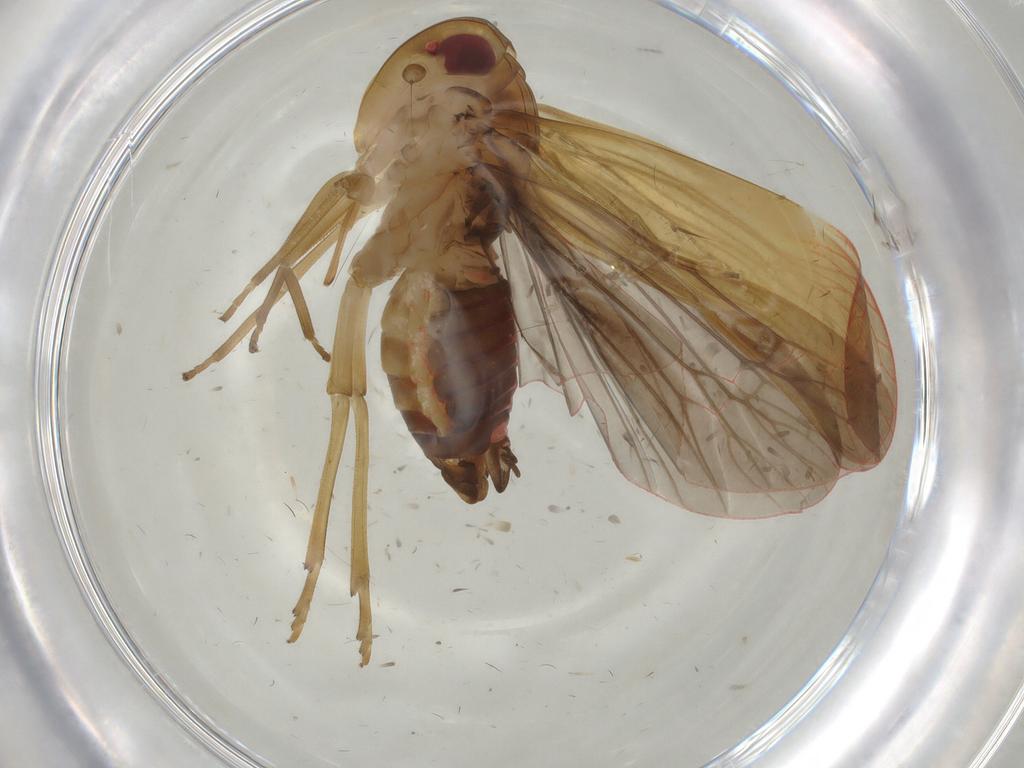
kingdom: Animalia
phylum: Arthropoda
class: Insecta
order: Hemiptera
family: Achilidae
